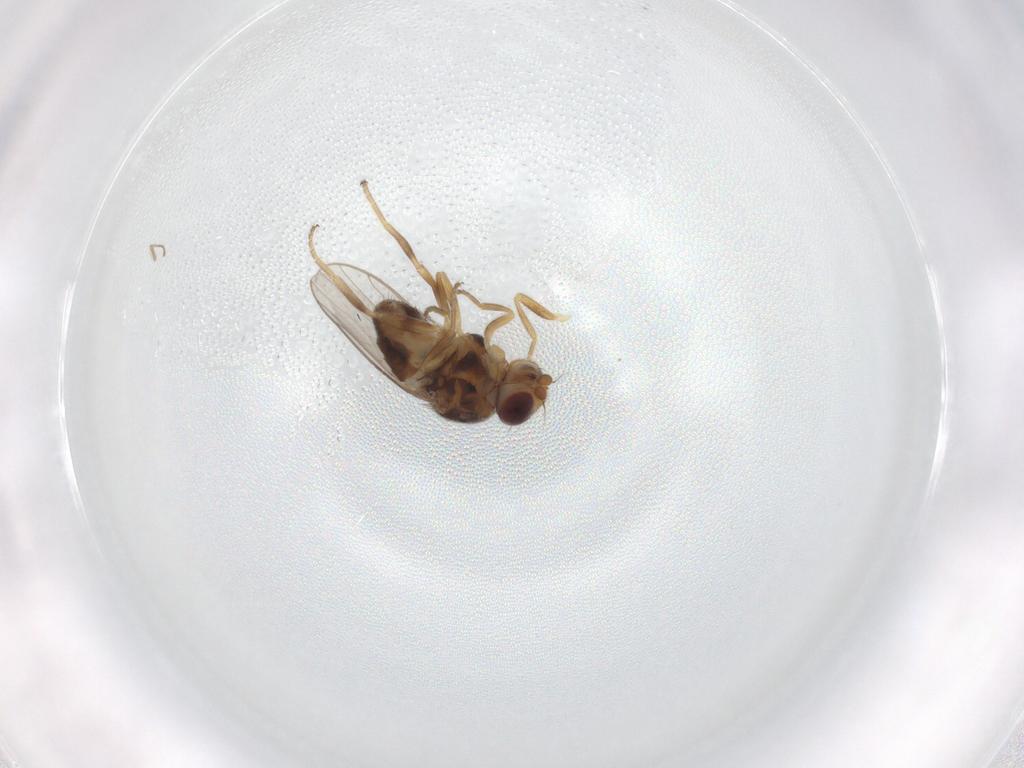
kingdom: Animalia
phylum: Arthropoda
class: Insecta
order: Diptera
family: Chloropidae
